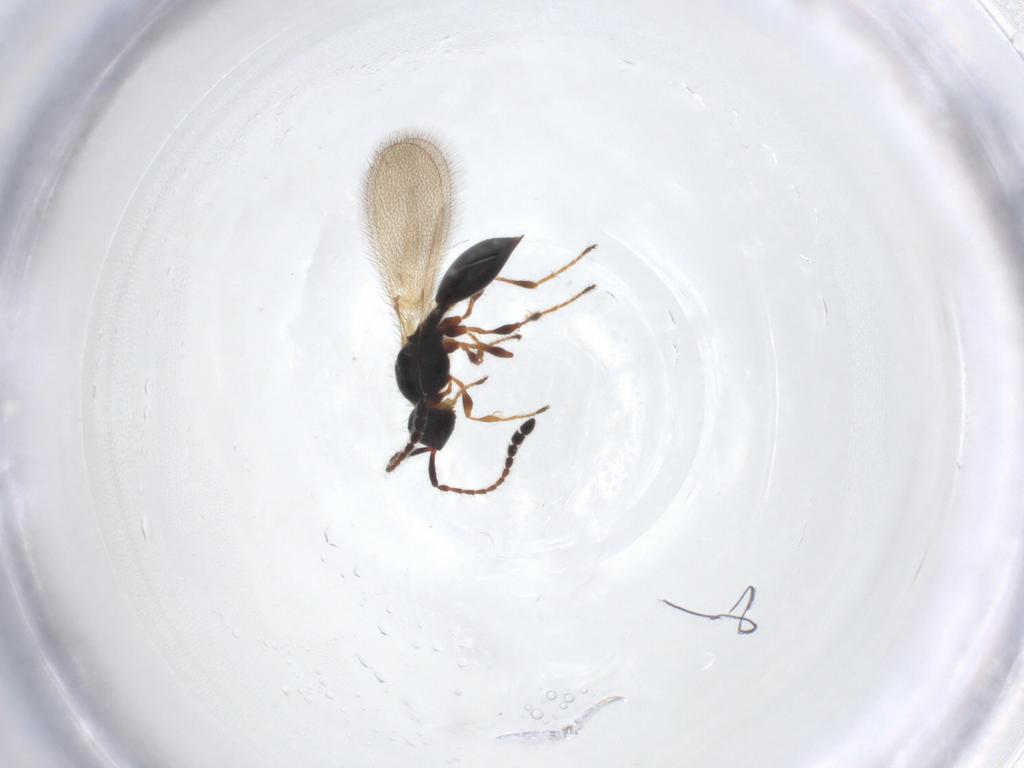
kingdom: Animalia
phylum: Arthropoda
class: Insecta
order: Hymenoptera
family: Diapriidae
